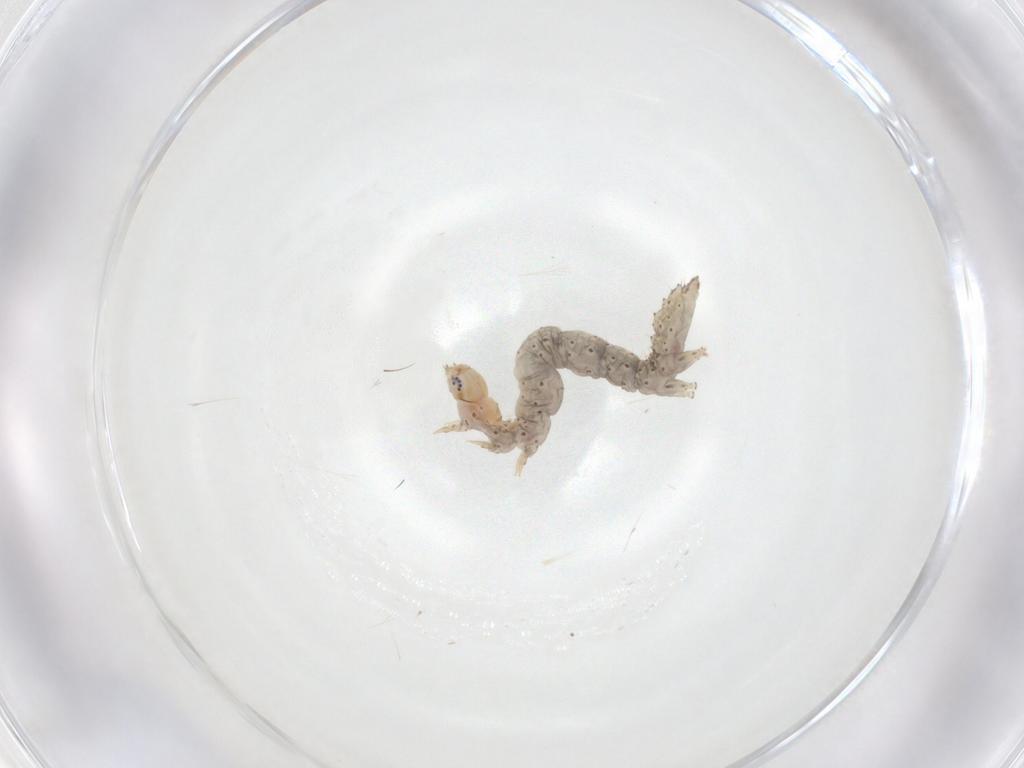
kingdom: Animalia
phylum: Arthropoda
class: Insecta
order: Lepidoptera
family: Erebidae
